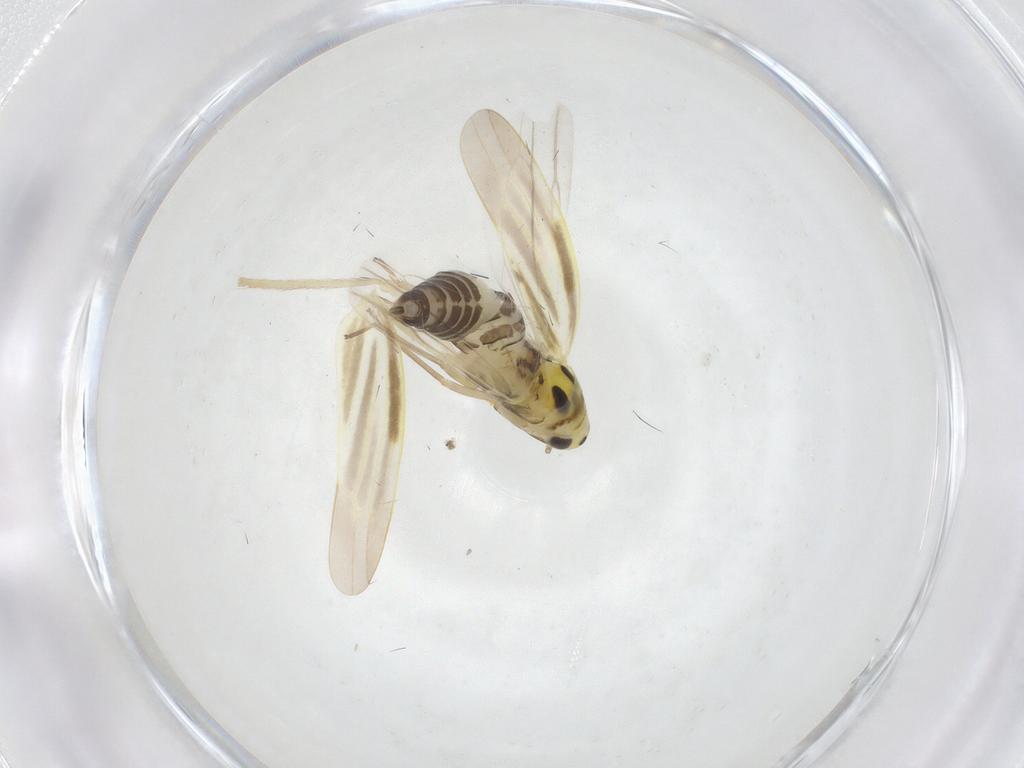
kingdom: Animalia
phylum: Arthropoda
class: Insecta
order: Hemiptera
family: Cicadellidae
